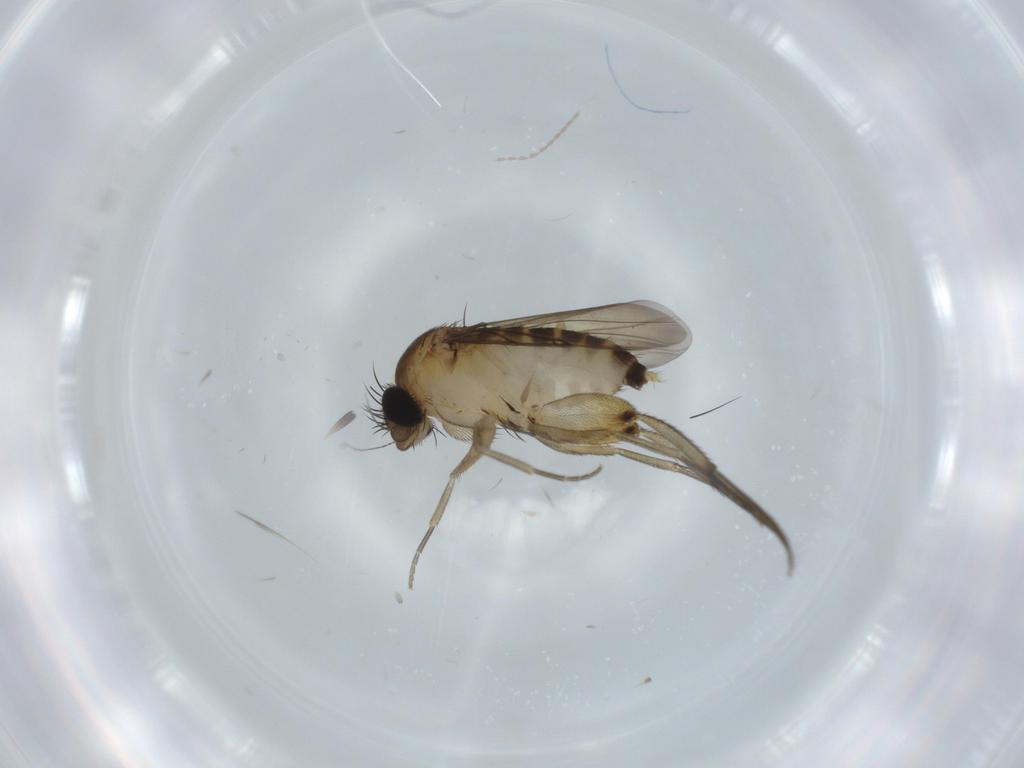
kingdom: Animalia
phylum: Arthropoda
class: Insecta
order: Diptera
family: Phoridae
